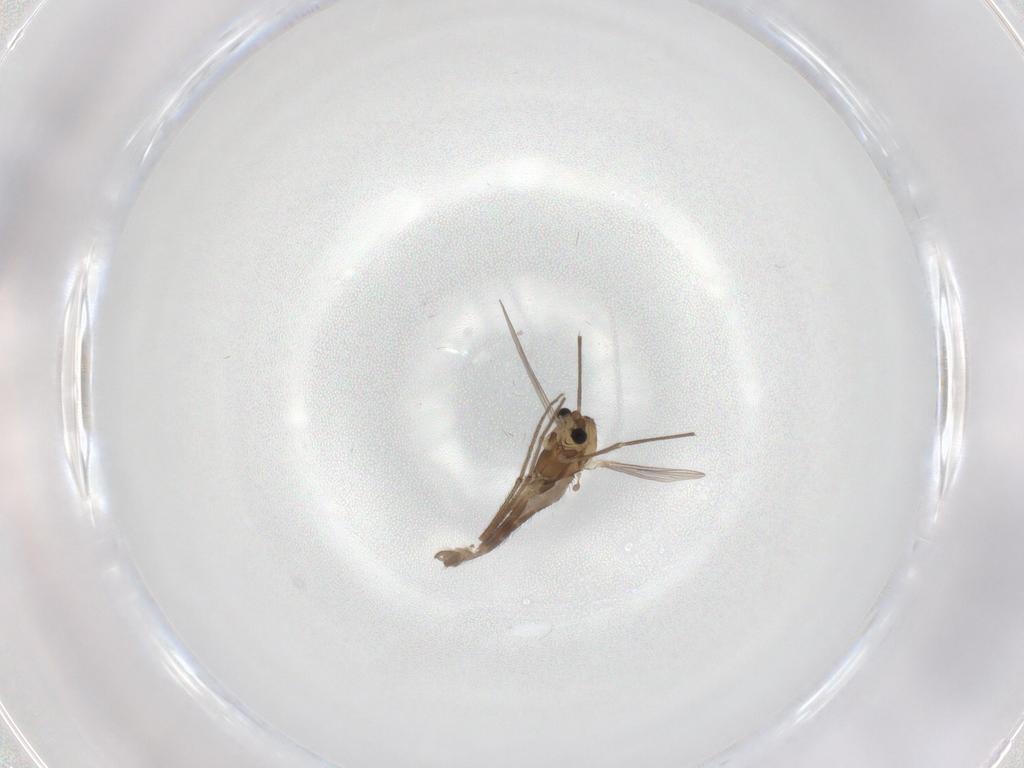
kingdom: Animalia
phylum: Arthropoda
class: Insecta
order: Diptera
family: Chironomidae
